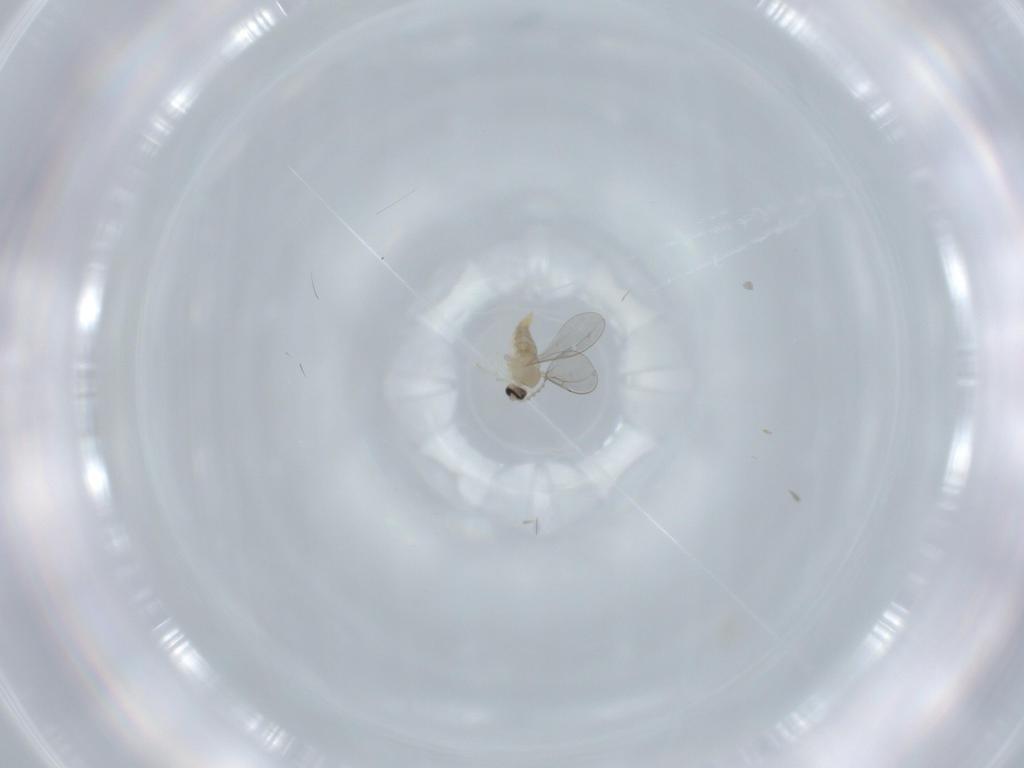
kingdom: Animalia
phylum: Arthropoda
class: Insecta
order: Diptera
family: Cecidomyiidae
